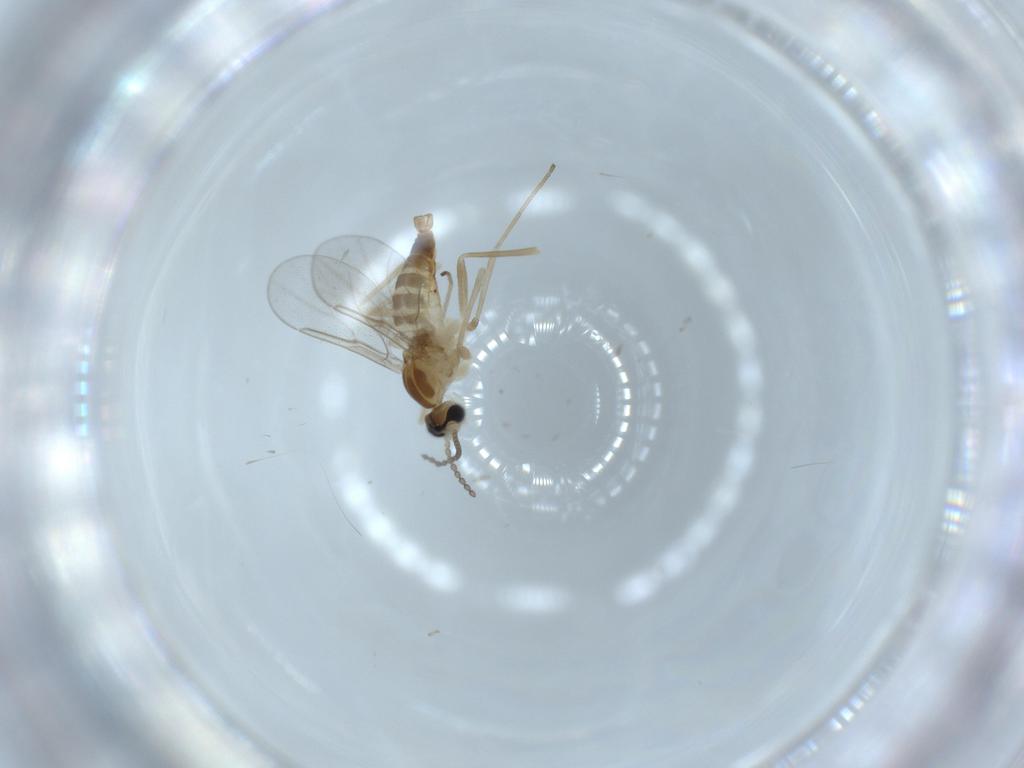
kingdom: Animalia
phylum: Arthropoda
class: Insecta
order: Diptera
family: Cecidomyiidae
